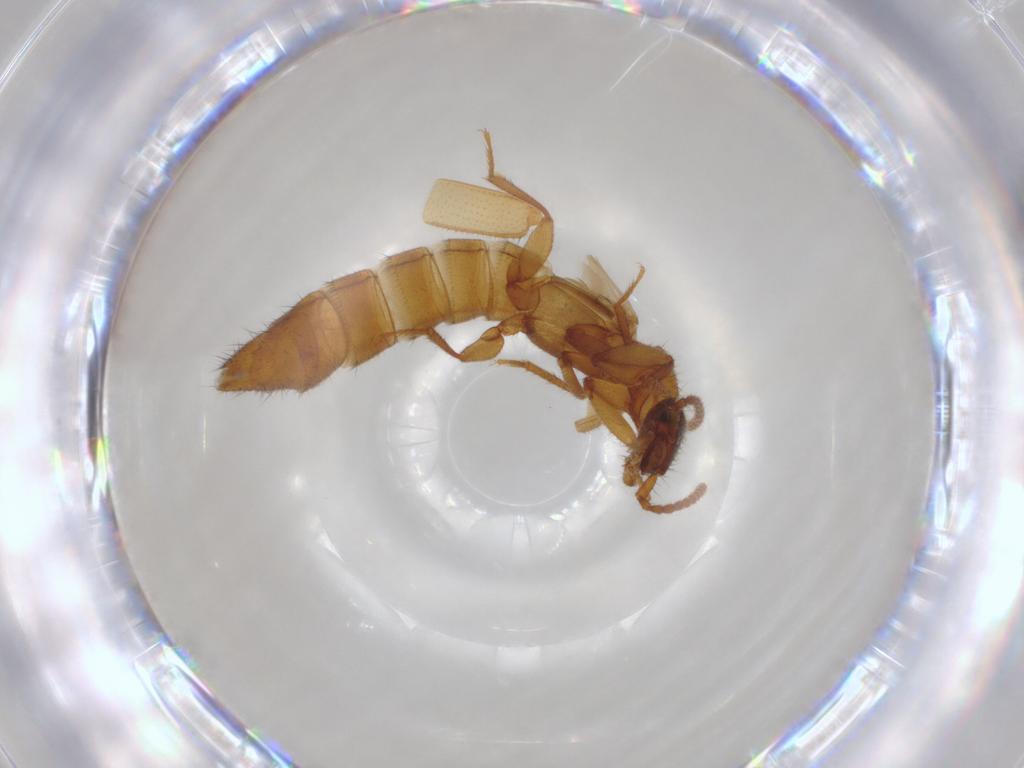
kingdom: Animalia
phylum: Arthropoda
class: Insecta
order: Coleoptera
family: Staphylinidae
